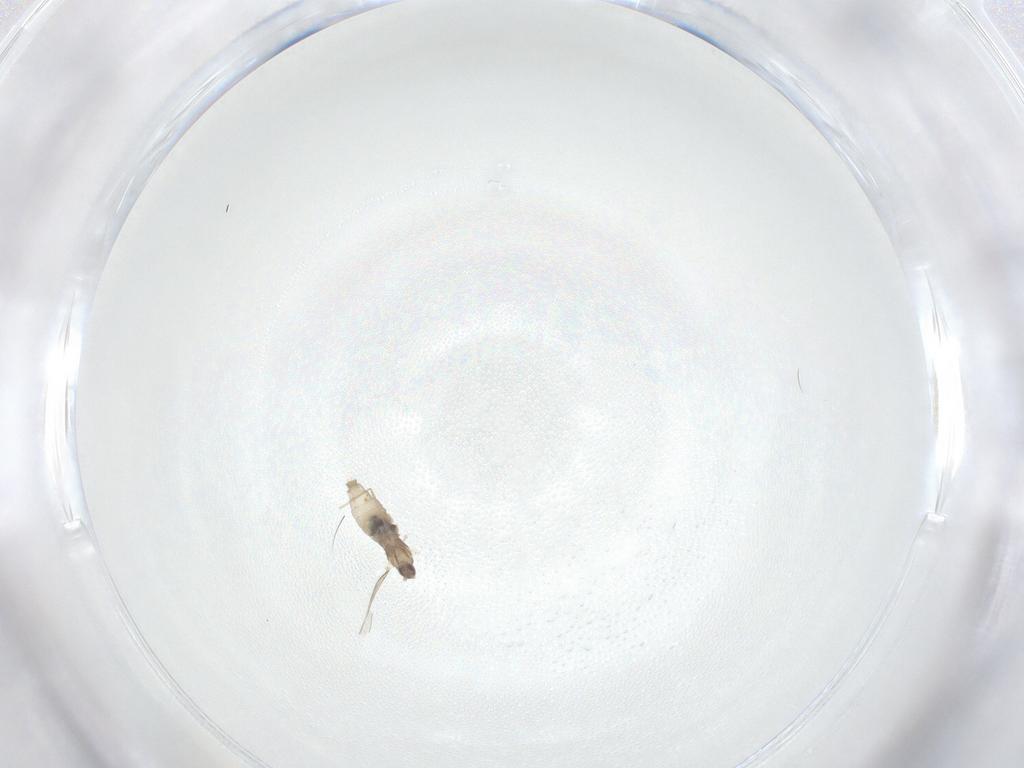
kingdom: Animalia
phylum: Arthropoda
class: Insecta
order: Diptera
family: Cecidomyiidae
